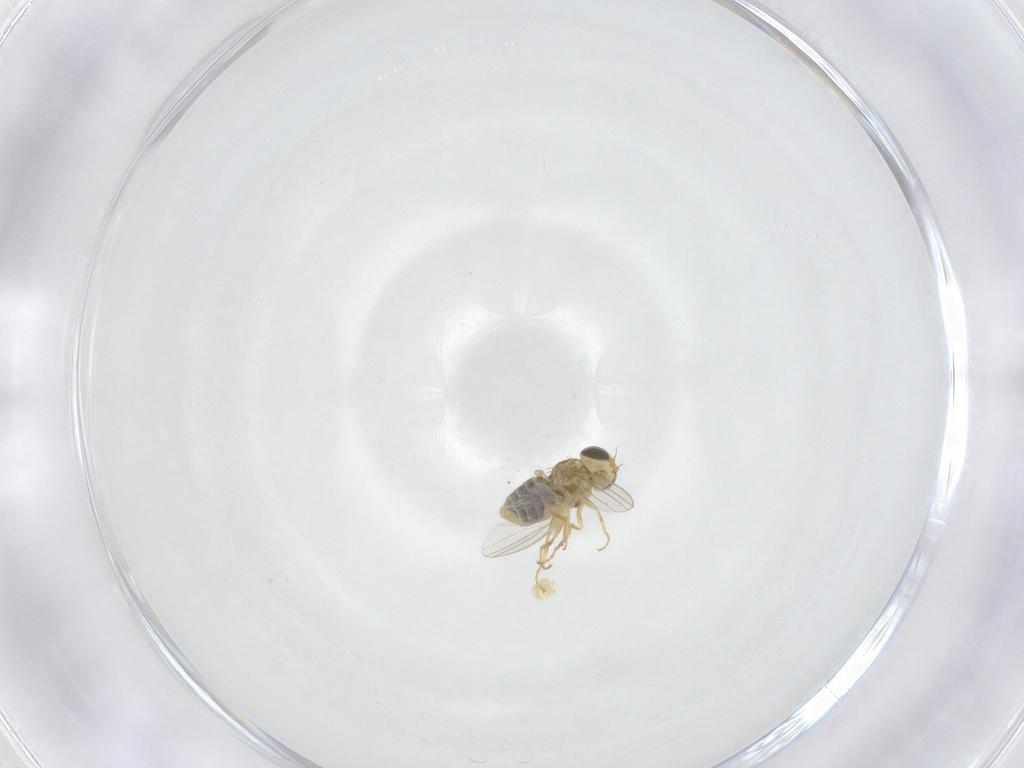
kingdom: Animalia
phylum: Arthropoda
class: Insecta
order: Diptera
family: Chyromyidae
